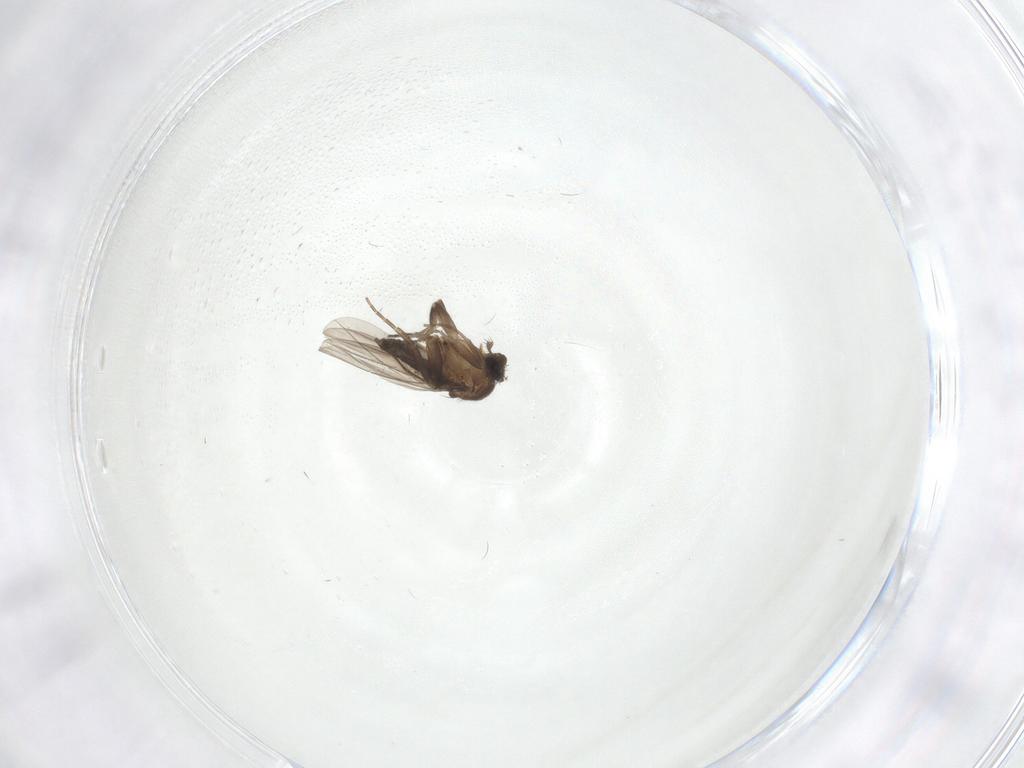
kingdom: Animalia
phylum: Arthropoda
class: Insecta
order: Diptera
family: Phoridae
